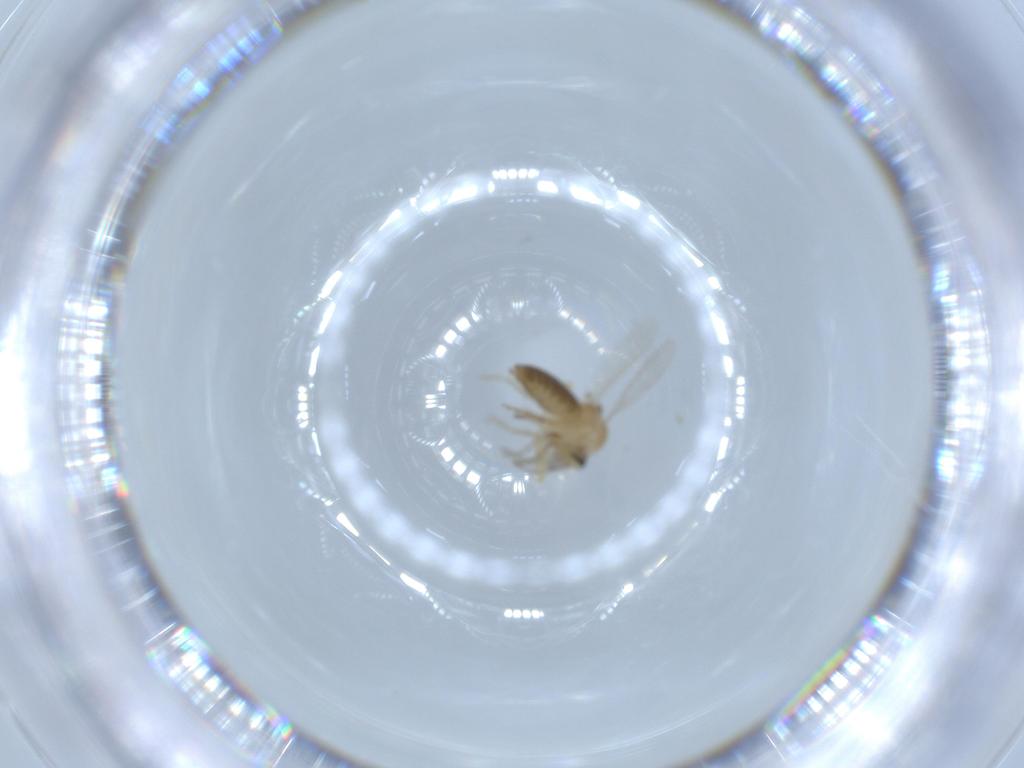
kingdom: Animalia
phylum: Arthropoda
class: Insecta
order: Diptera
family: Ceratopogonidae
